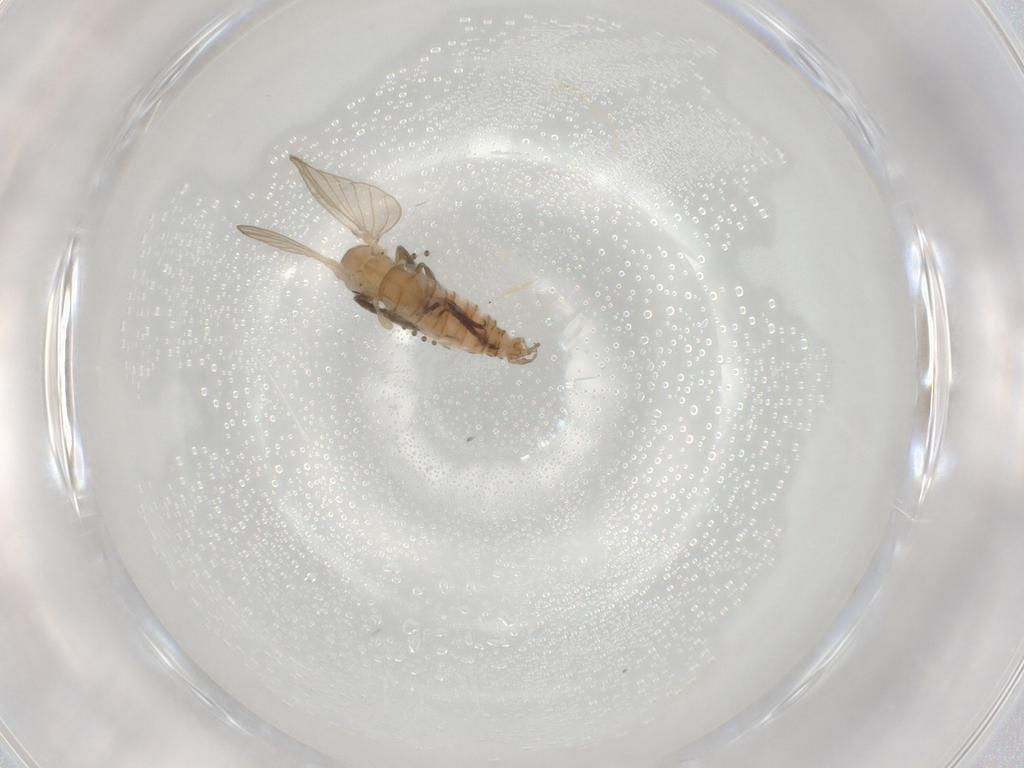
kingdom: Animalia
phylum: Arthropoda
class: Insecta
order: Diptera
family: Psychodidae
